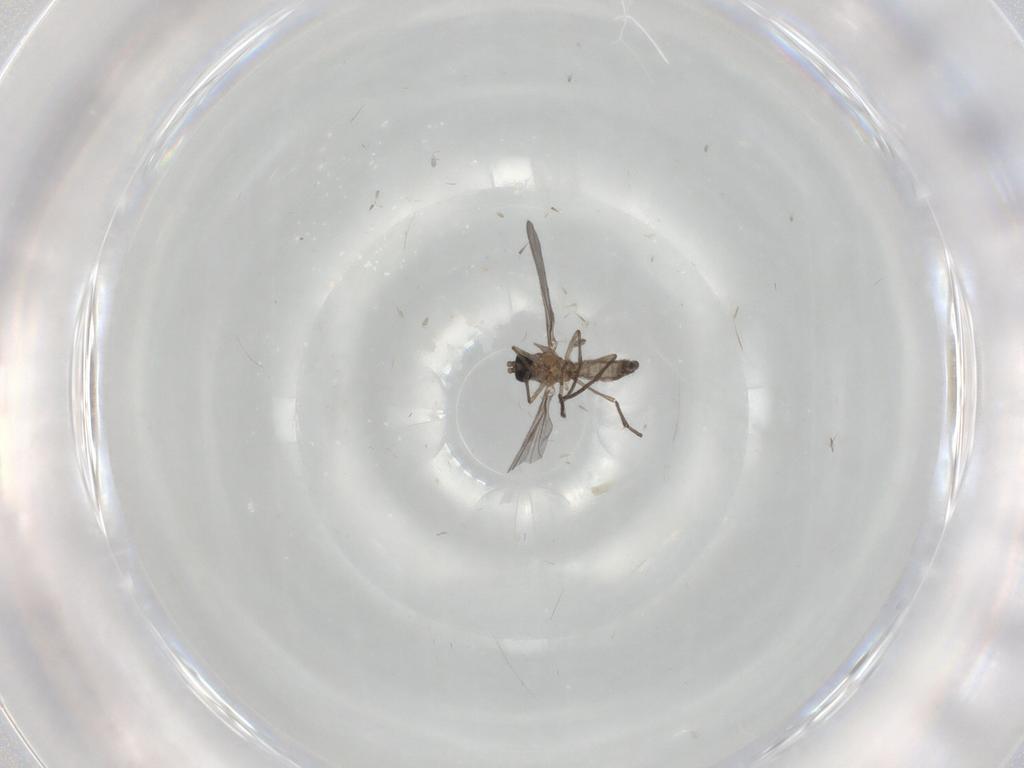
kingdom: Animalia
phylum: Arthropoda
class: Insecta
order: Diptera
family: Sciaridae
